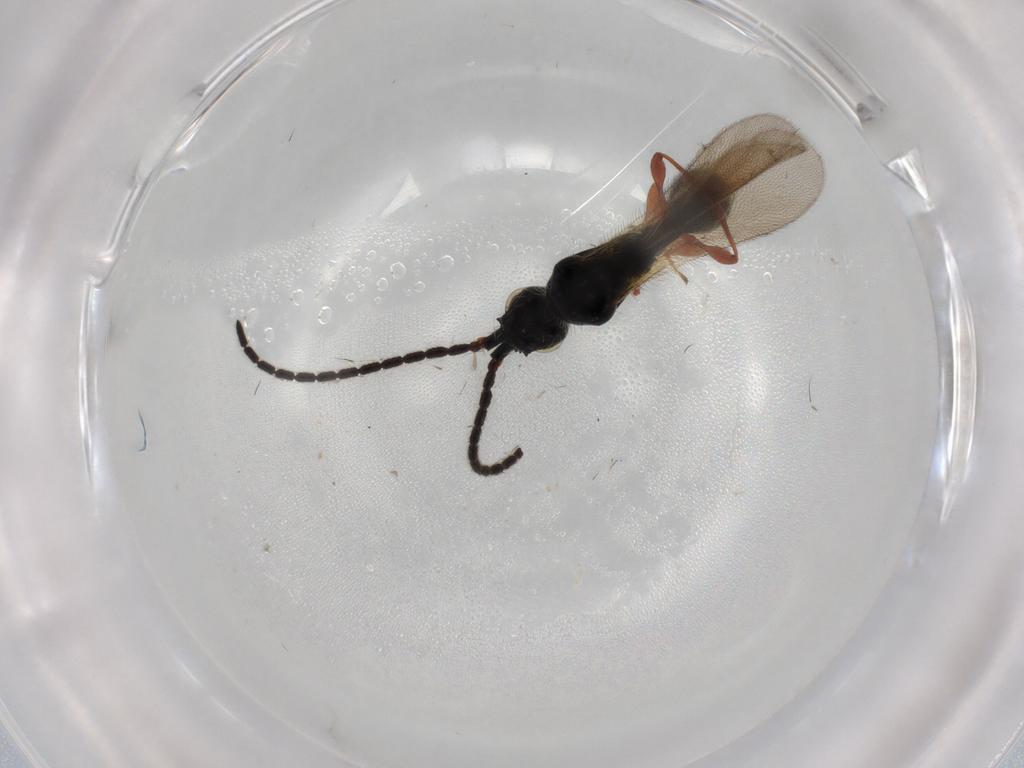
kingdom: Animalia
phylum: Arthropoda
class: Insecta
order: Hymenoptera
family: Bethylidae
